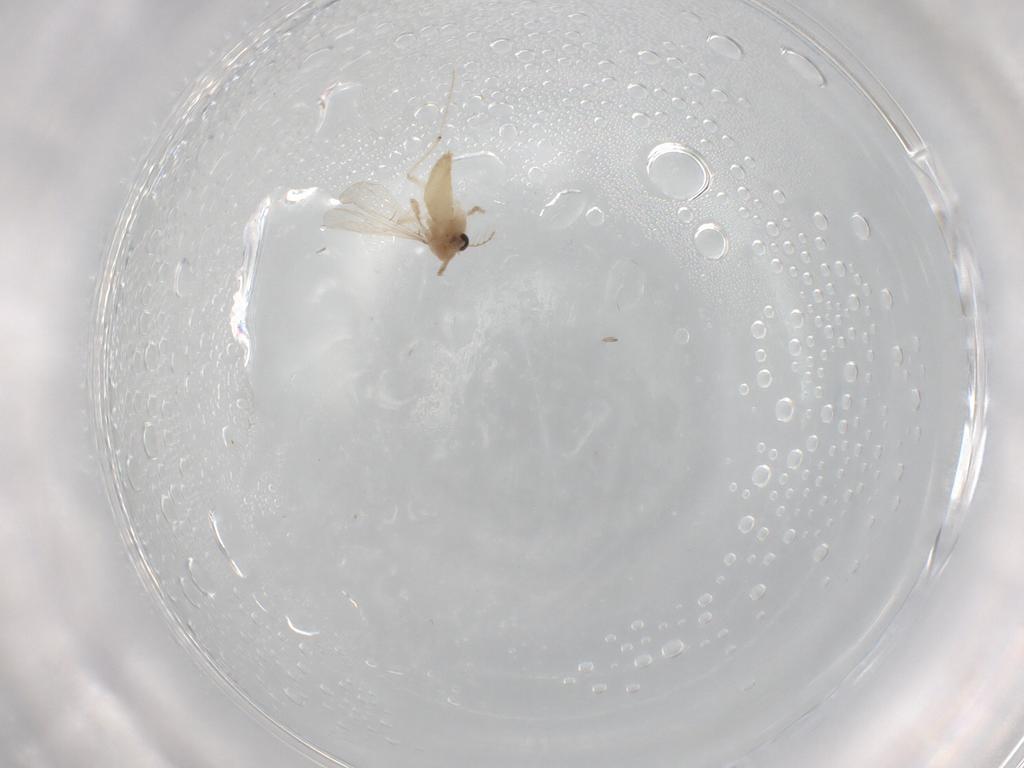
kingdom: Animalia
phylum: Arthropoda
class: Insecta
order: Diptera
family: Chironomidae
